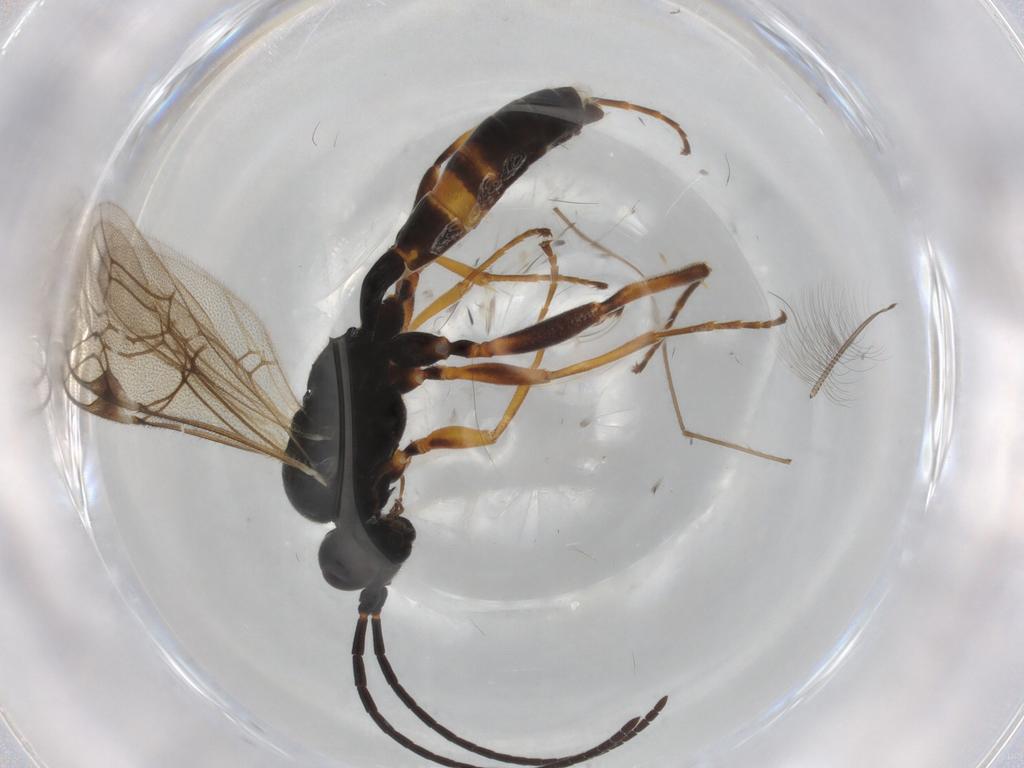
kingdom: Animalia
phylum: Arthropoda
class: Insecta
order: Hymenoptera
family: Ichneumonidae
